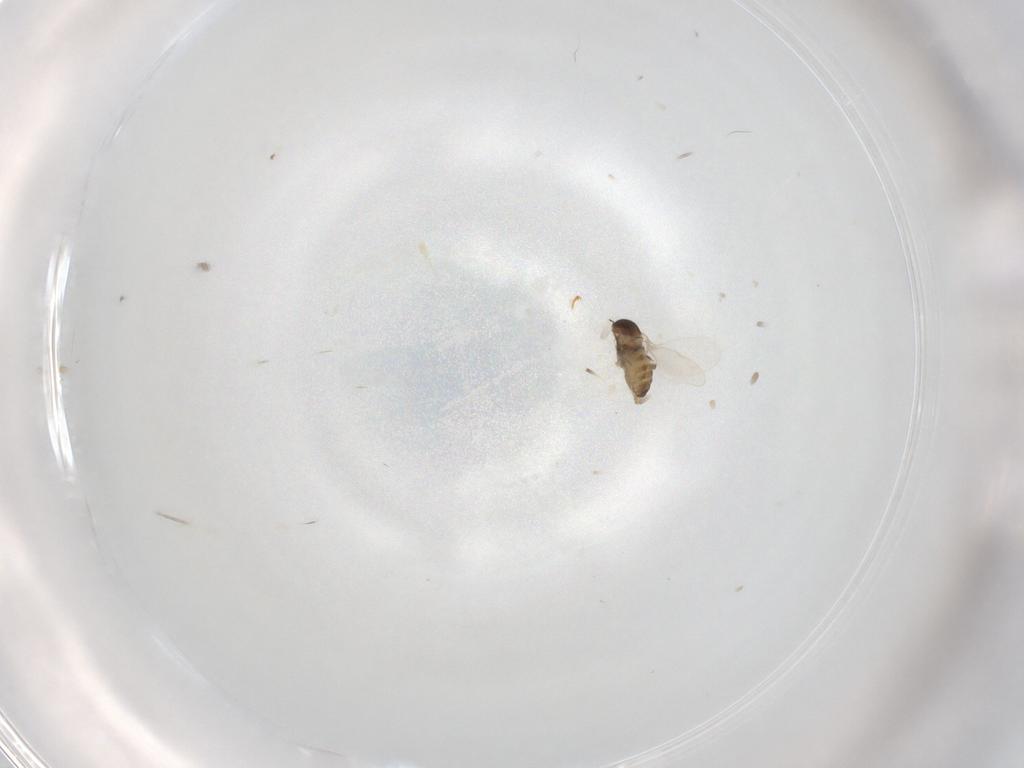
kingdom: Animalia
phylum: Arthropoda
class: Insecta
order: Diptera
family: Cecidomyiidae
